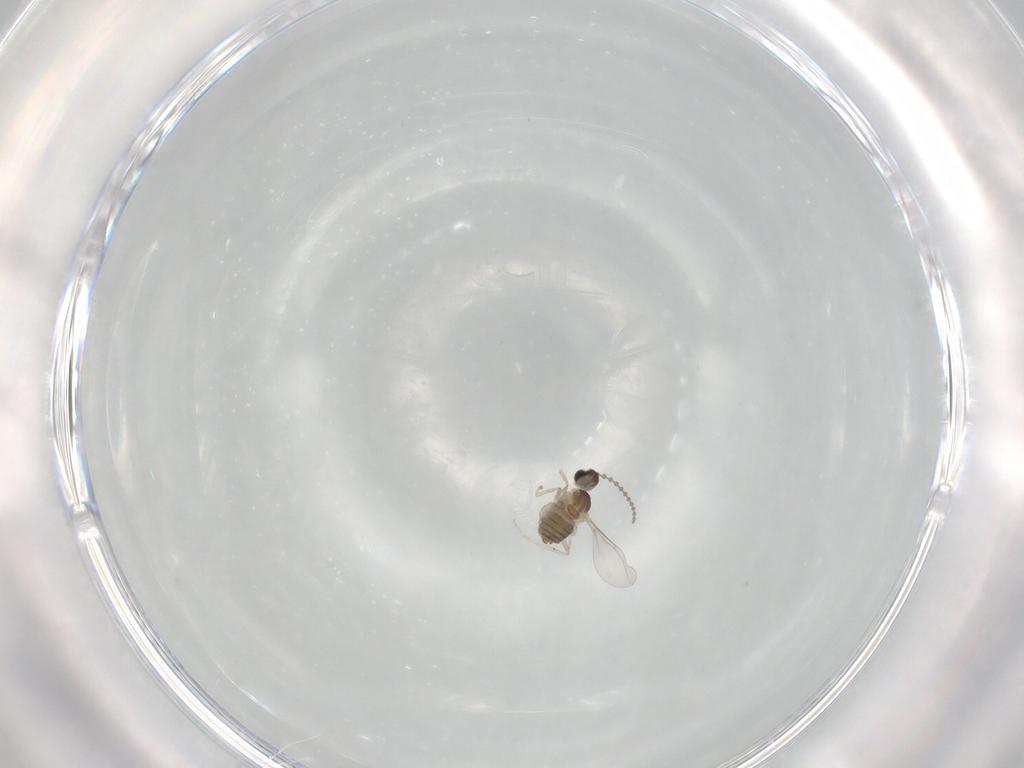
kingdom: Animalia
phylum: Arthropoda
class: Insecta
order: Diptera
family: Cecidomyiidae
